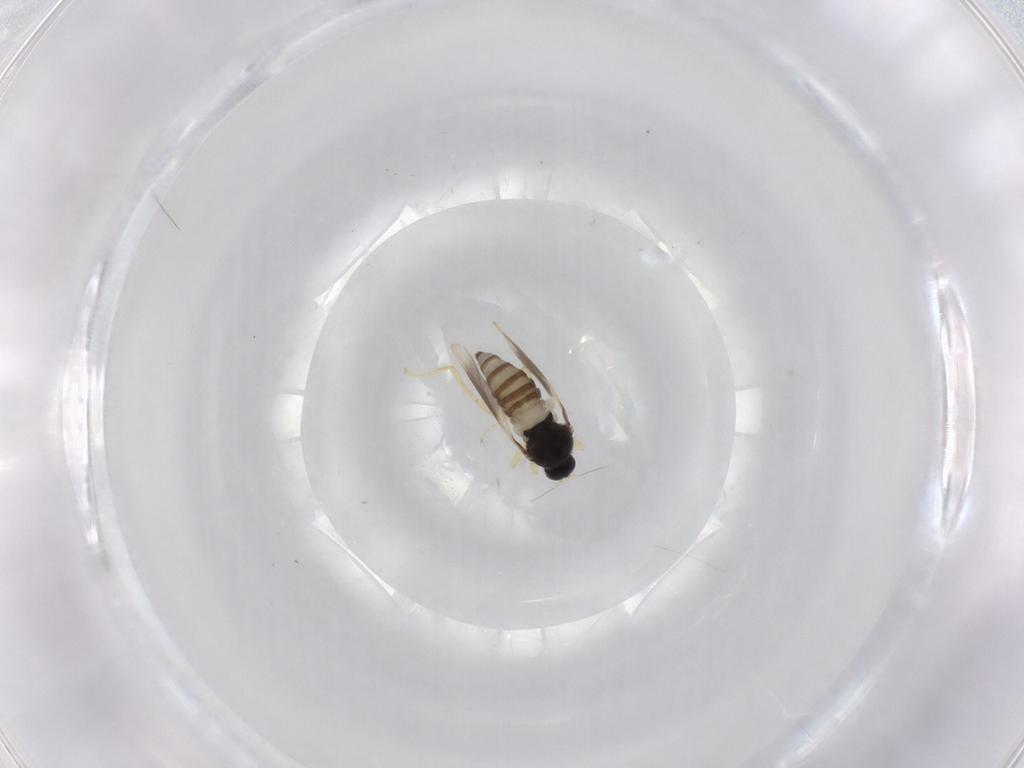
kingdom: Animalia
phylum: Arthropoda
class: Insecta
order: Diptera
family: Hybotidae
